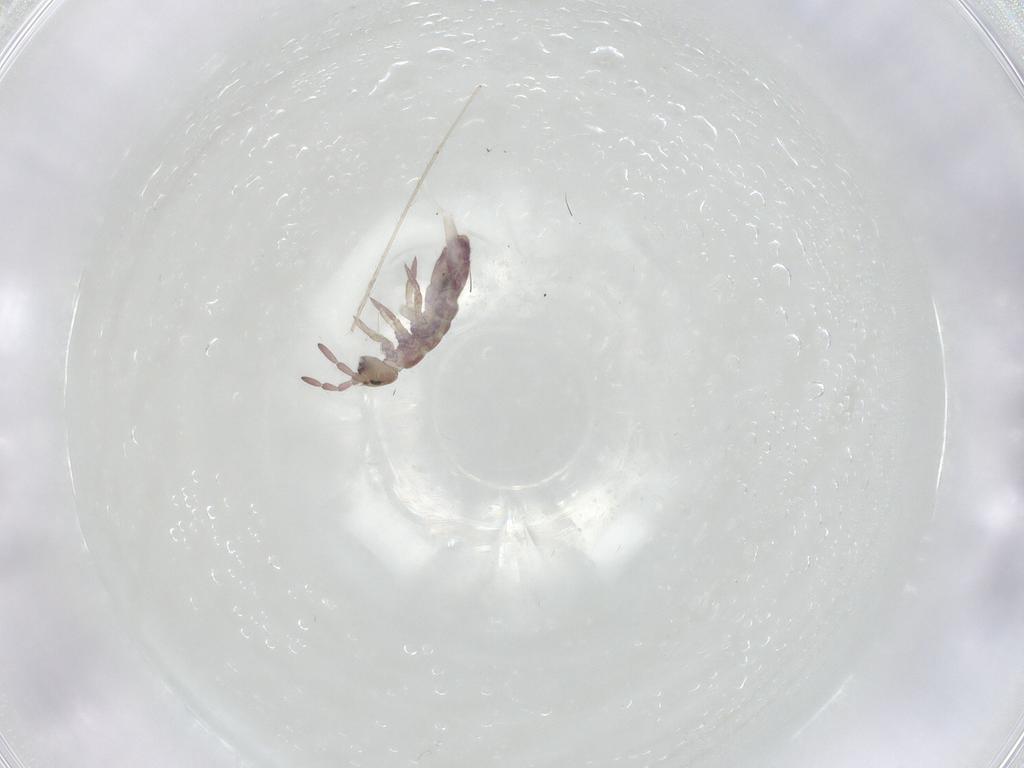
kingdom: Animalia
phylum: Arthropoda
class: Collembola
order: Entomobryomorpha
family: Isotomidae
